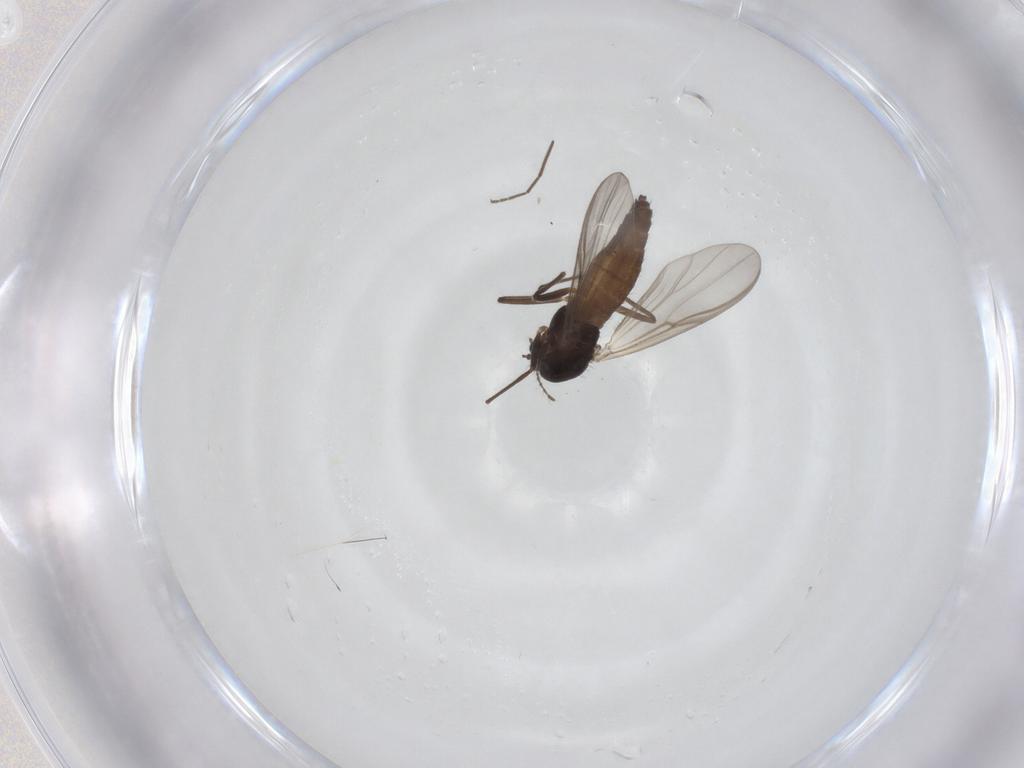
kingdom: Animalia
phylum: Arthropoda
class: Insecta
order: Diptera
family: Chironomidae
